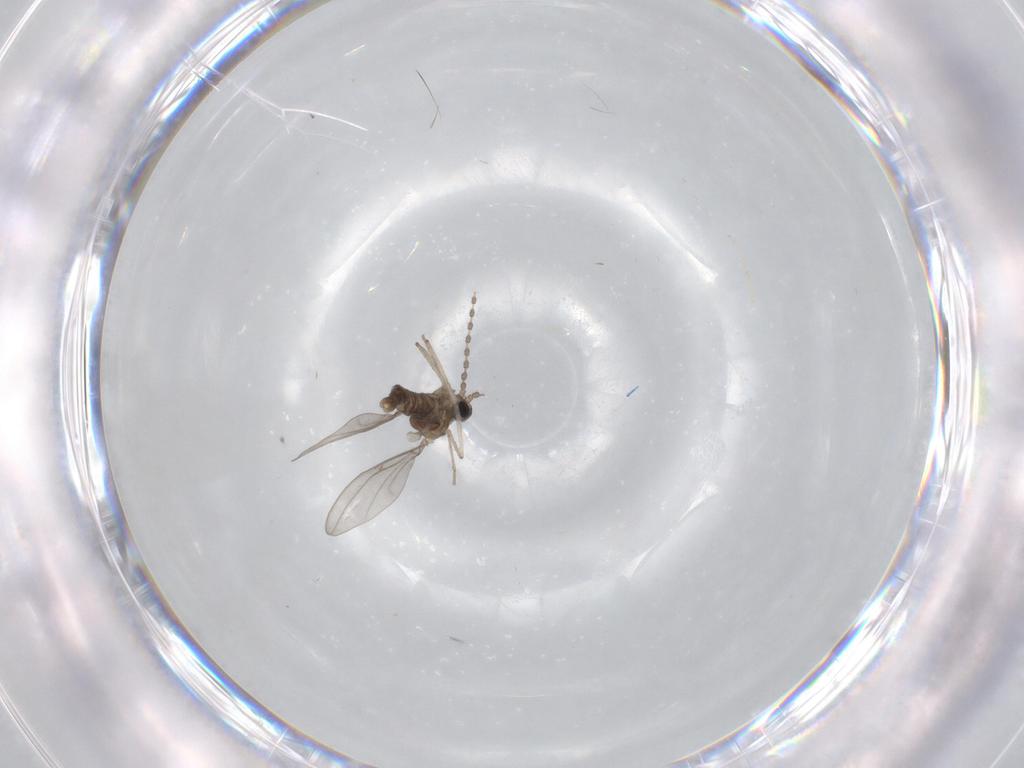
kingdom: Animalia
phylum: Arthropoda
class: Insecta
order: Diptera
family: Cecidomyiidae
